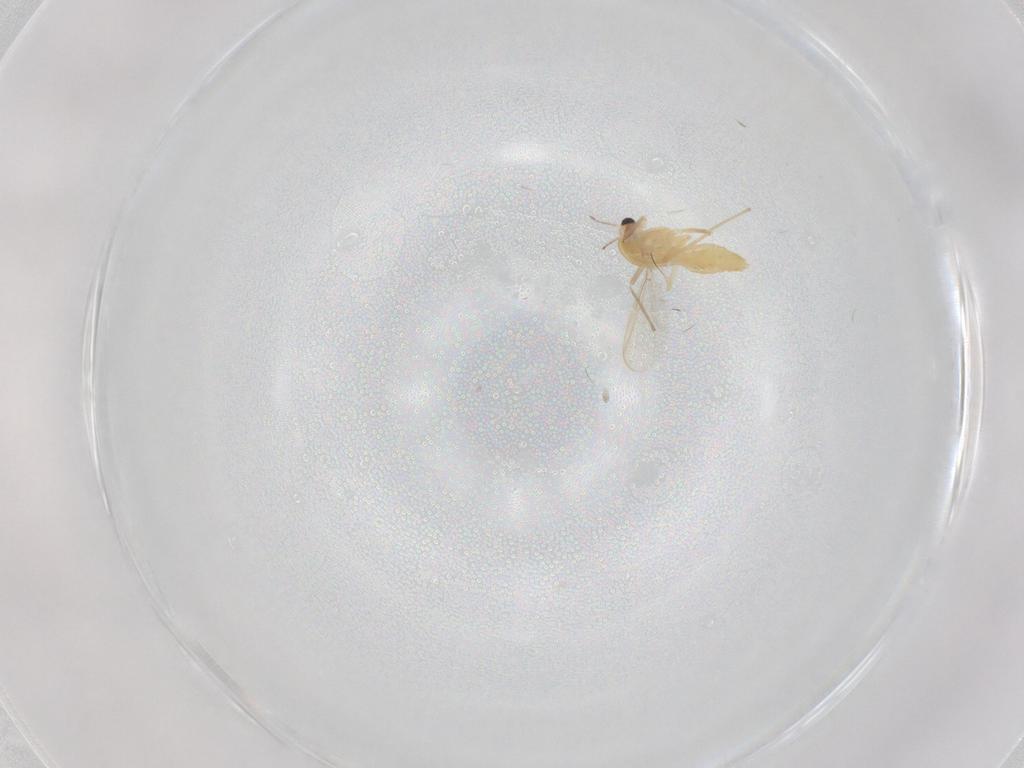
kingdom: Animalia
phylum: Arthropoda
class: Insecta
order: Diptera
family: Chironomidae
